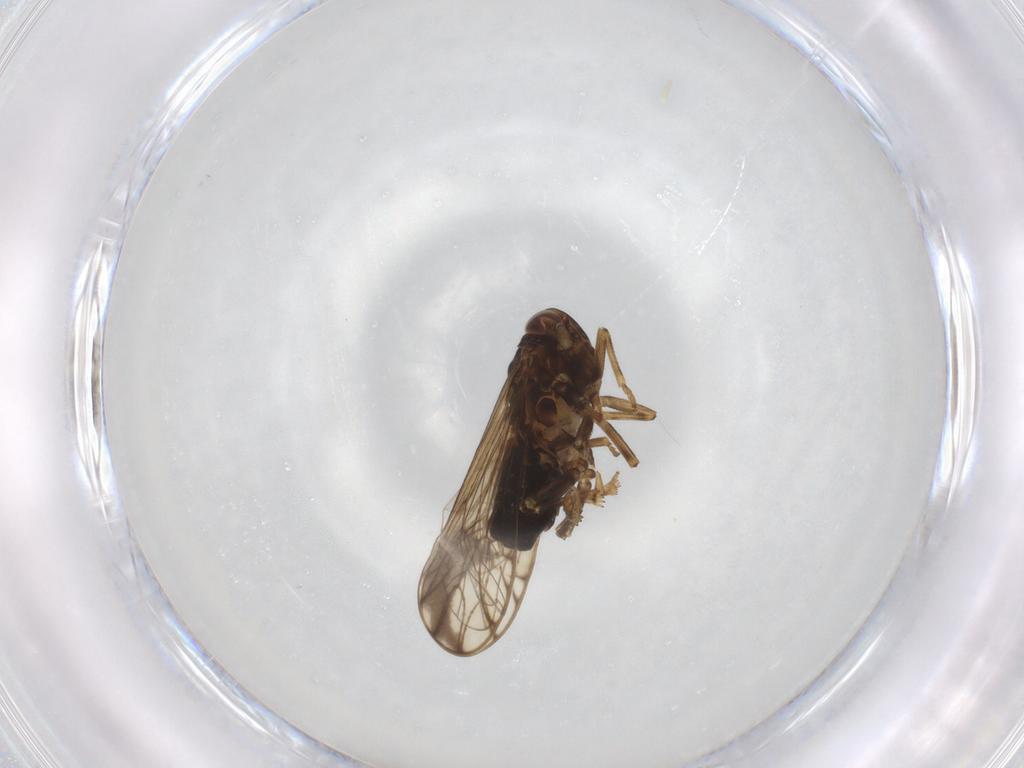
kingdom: Animalia
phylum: Arthropoda
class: Insecta
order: Hemiptera
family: Delphacidae
